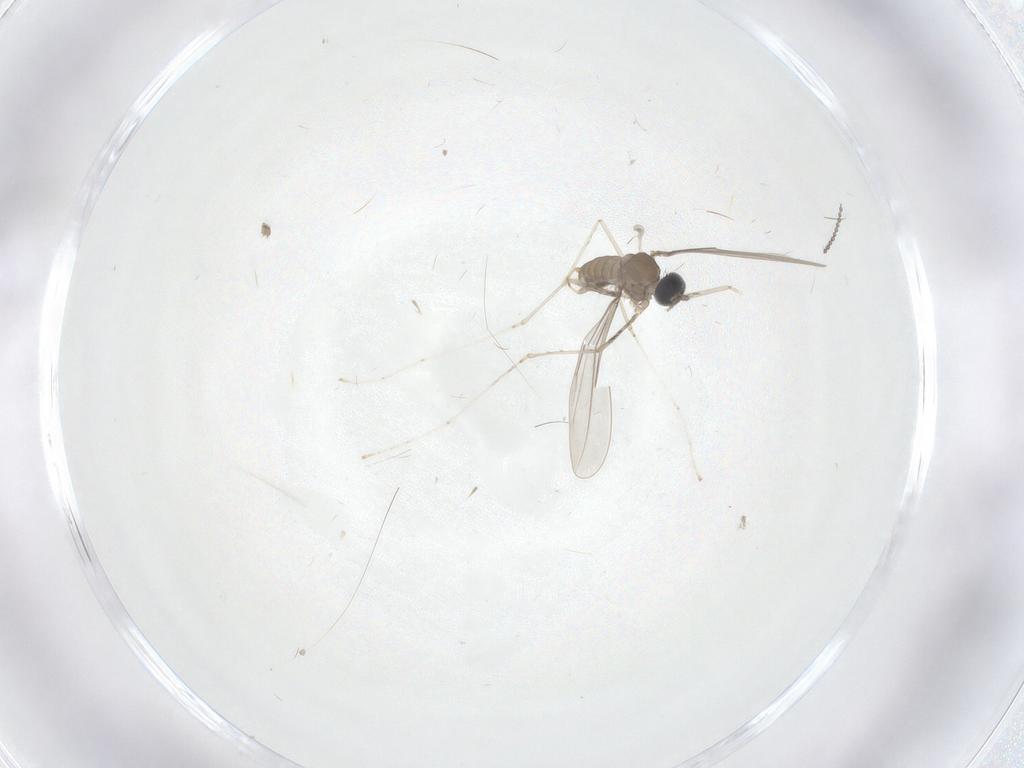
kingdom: Animalia
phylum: Arthropoda
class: Insecta
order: Diptera
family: Cecidomyiidae
